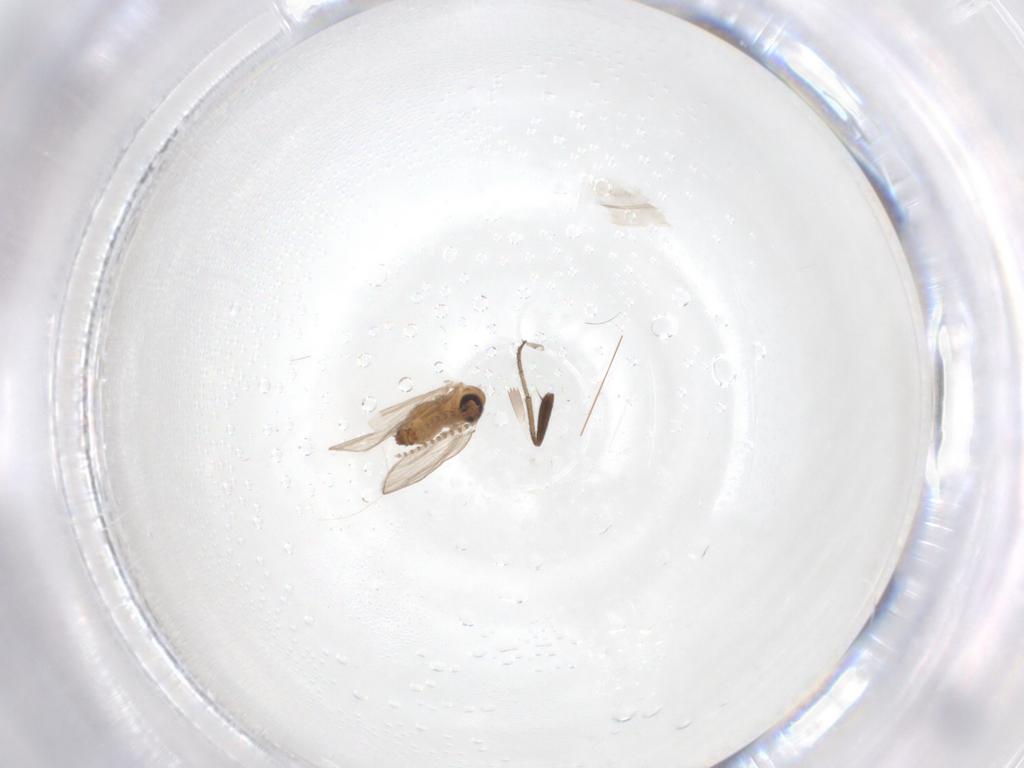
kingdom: Animalia
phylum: Arthropoda
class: Insecta
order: Diptera
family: Dolichopodidae
